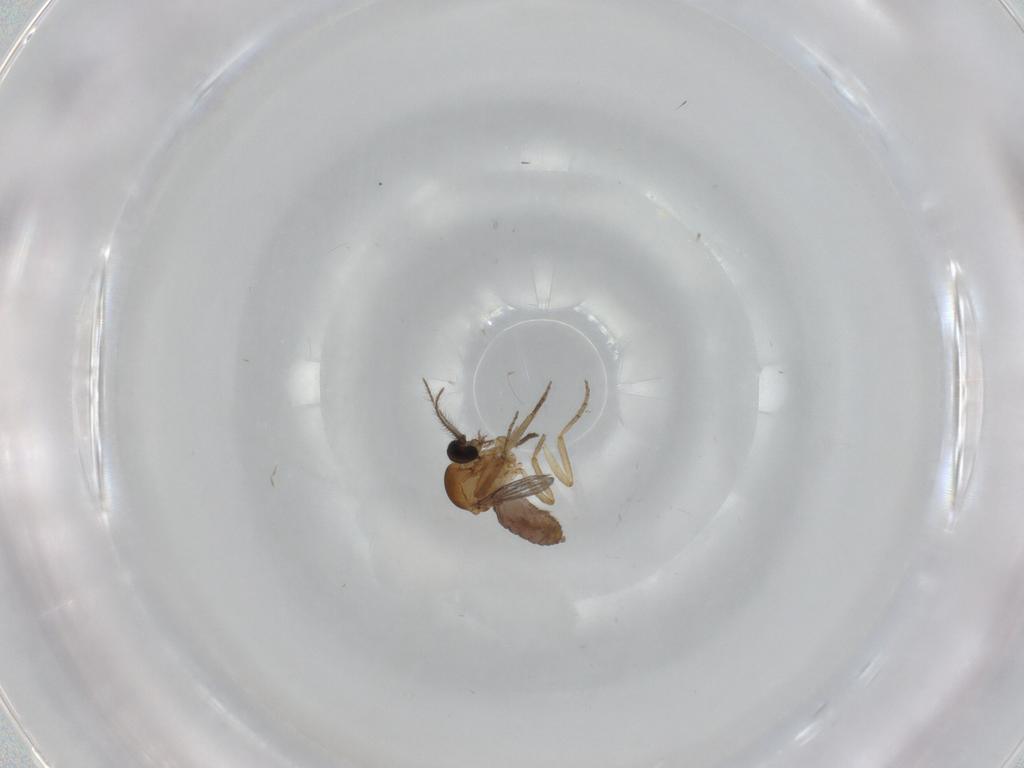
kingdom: Animalia
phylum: Arthropoda
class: Insecta
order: Diptera
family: Ceratopogonidae
